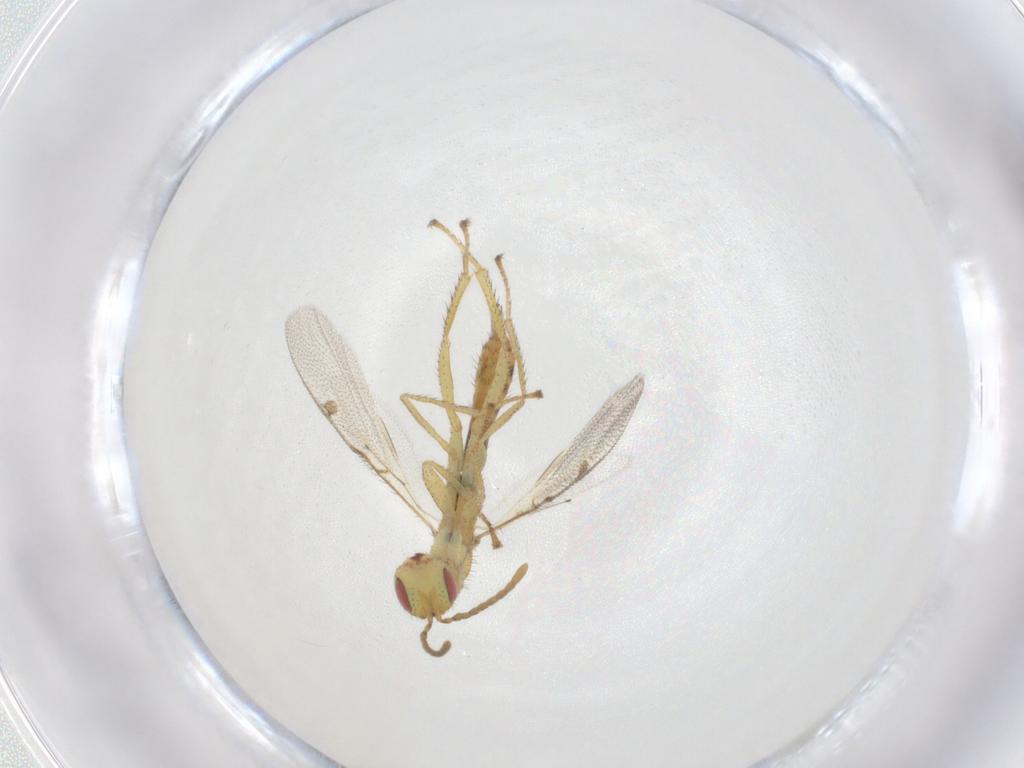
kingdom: Animalia
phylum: Arthropoda
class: Insecta
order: Hymenoptera
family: Megastigmidae
